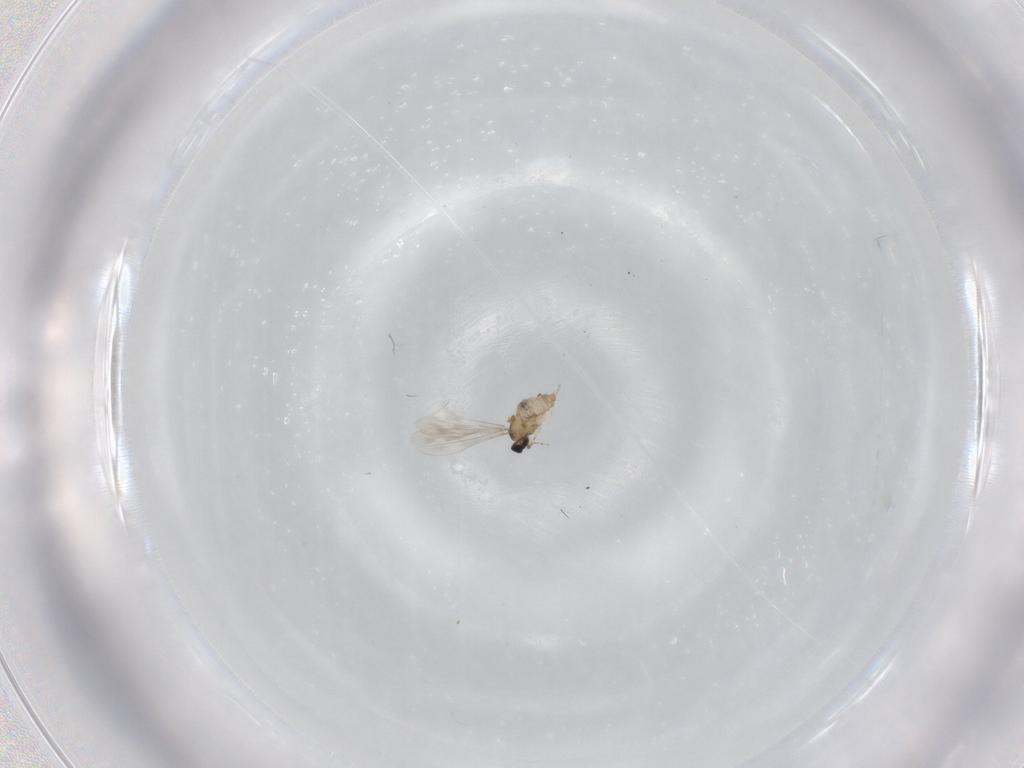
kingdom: Animalia
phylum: Arthropoda
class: Insecta
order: Diptera
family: Cecidomyiidae
